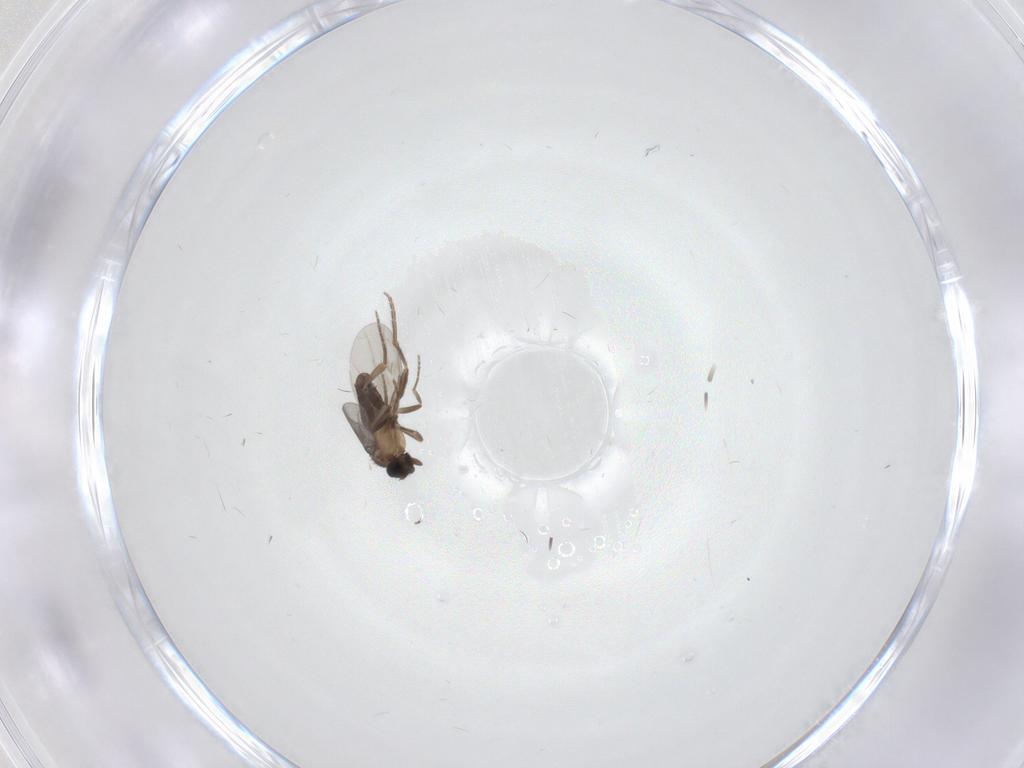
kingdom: Animalia
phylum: Arthropoda
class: Insecta
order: Diptera
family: Cecidomyiidae
